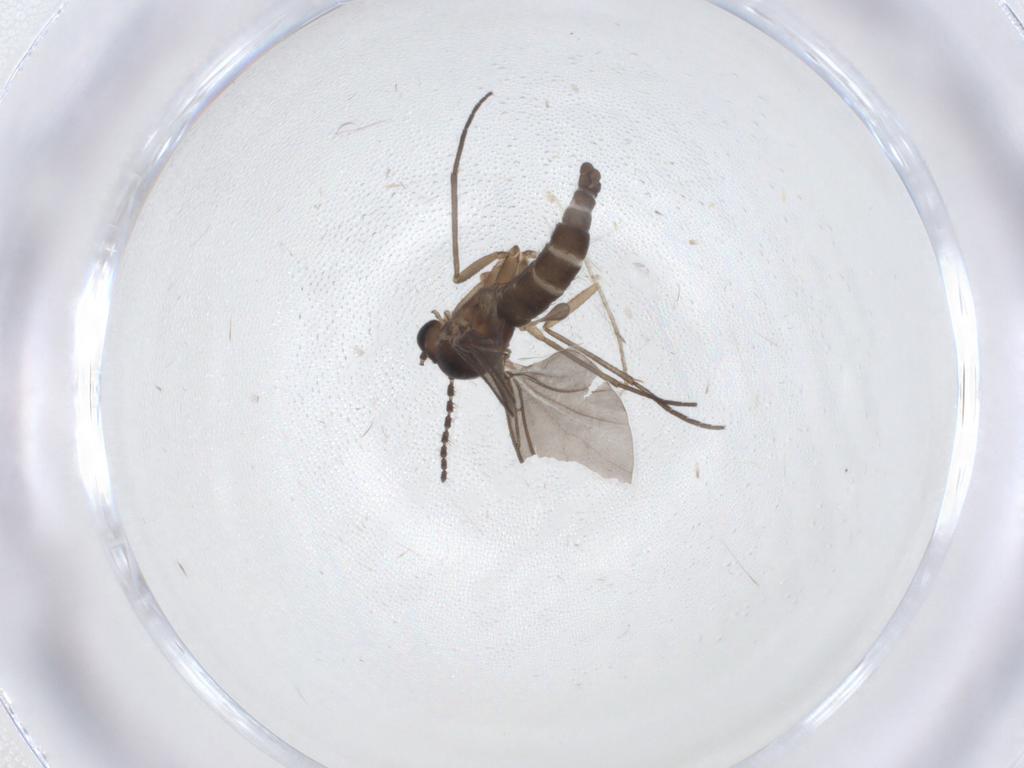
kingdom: Animalia
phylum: Arthropoda
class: Insecta
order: Diptera
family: Sciaridae
